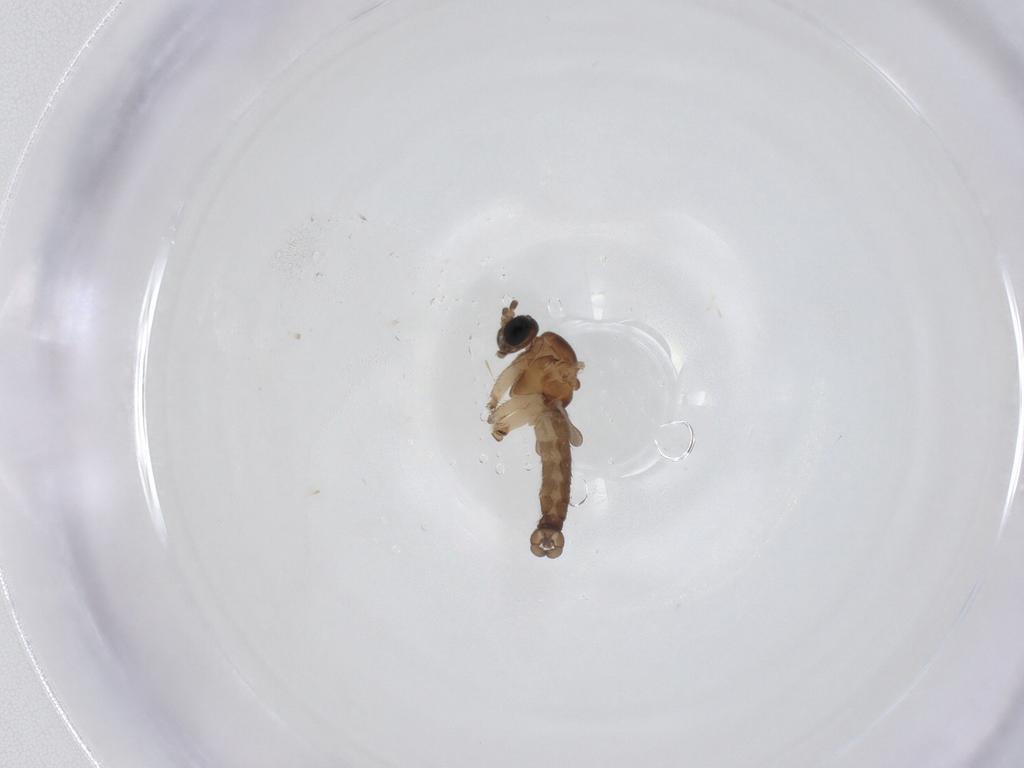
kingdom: Animalia
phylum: Arthropoda
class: Insecta
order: Diptera
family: Sciaridae
